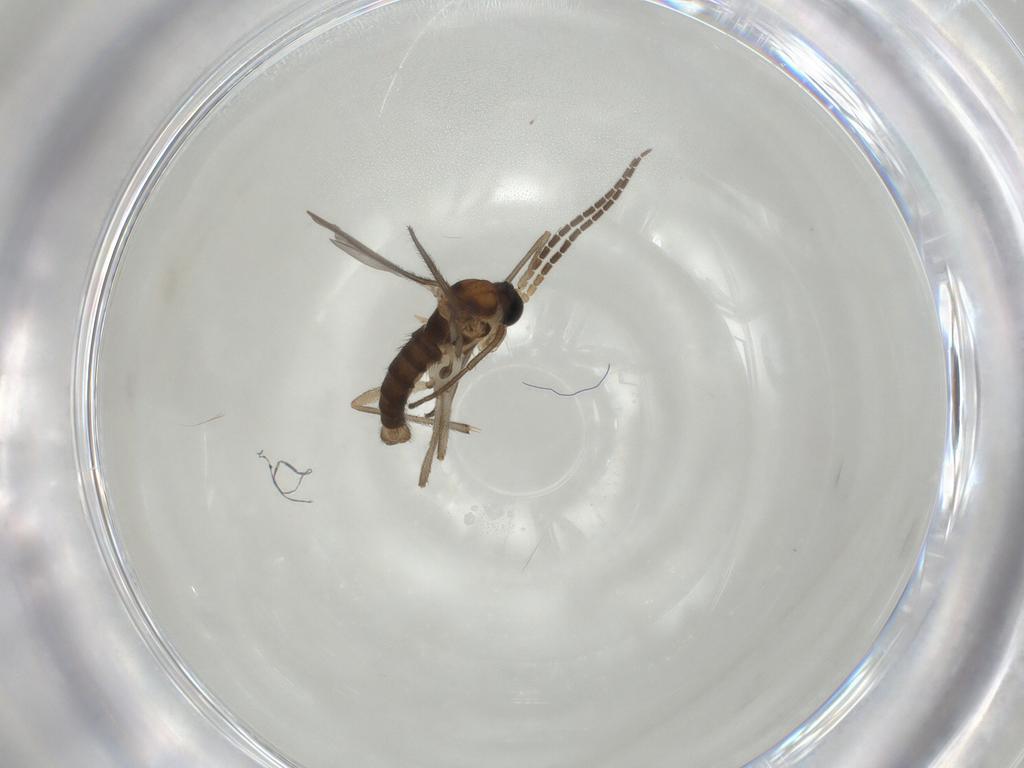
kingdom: Animalia
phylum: Arthropoda
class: Insecta
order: Diptera
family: Sciaridae
